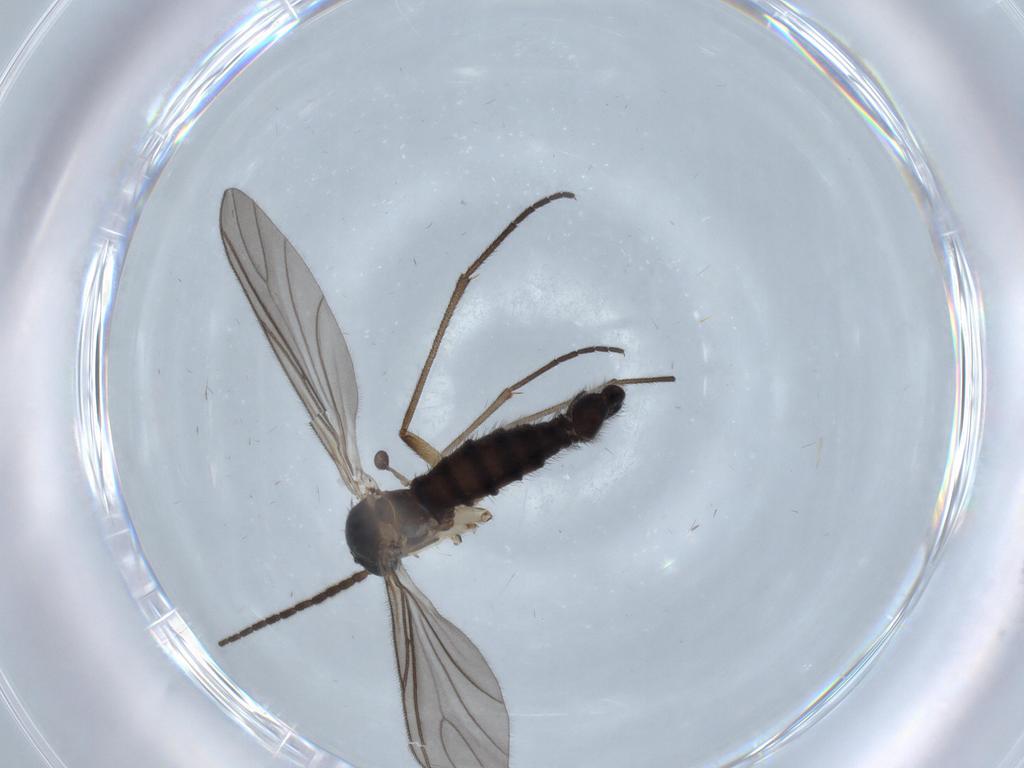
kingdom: Animalia
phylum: Arthropoda
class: Insecta
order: Diptera
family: Sciaridae
